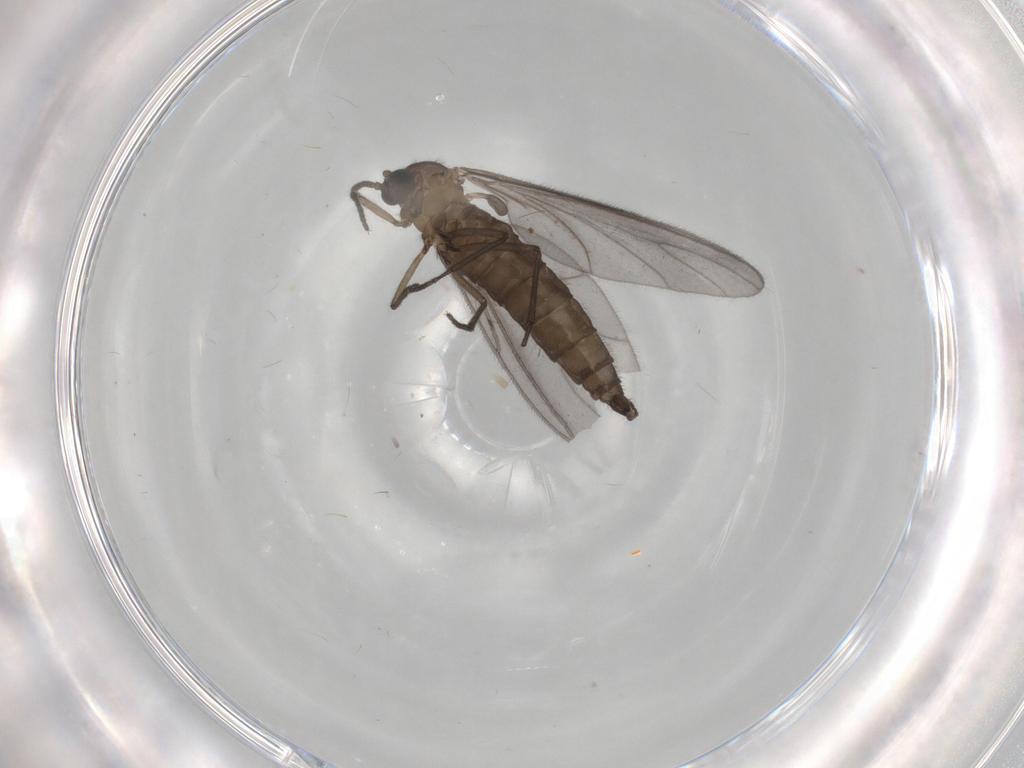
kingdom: Animalia
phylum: Arthropoda
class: Insecta
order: Diptera
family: Sciaridae
